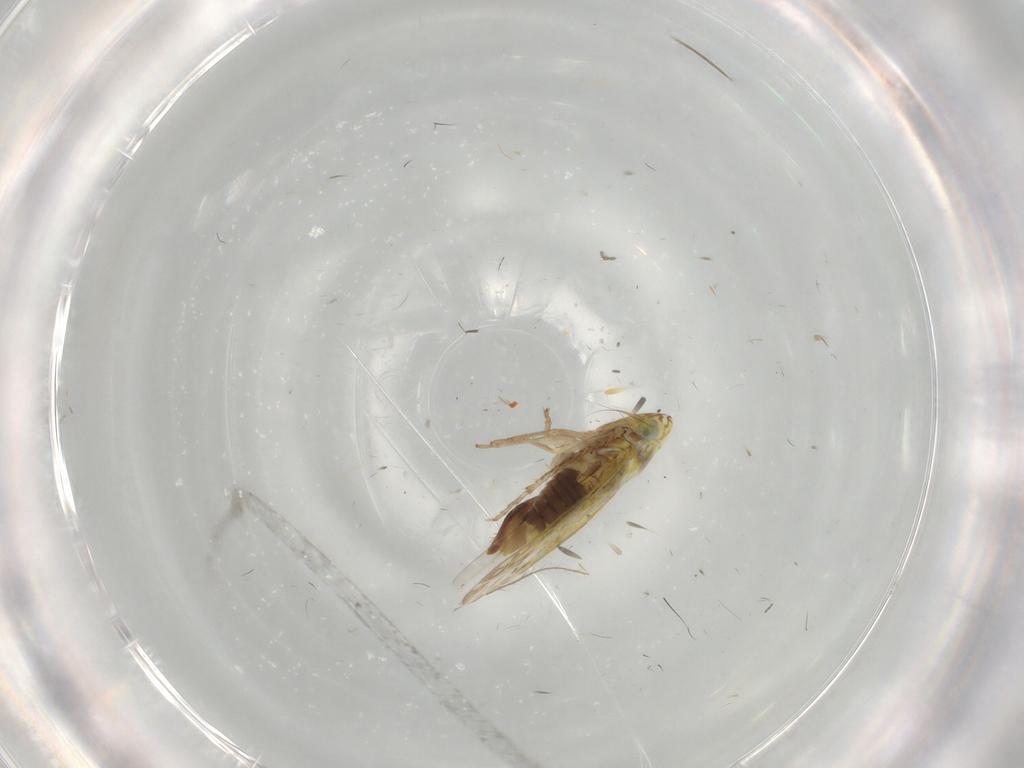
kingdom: Animalia
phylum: Arthropoda
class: Insecta
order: Hemiptera
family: Cicadellidae
